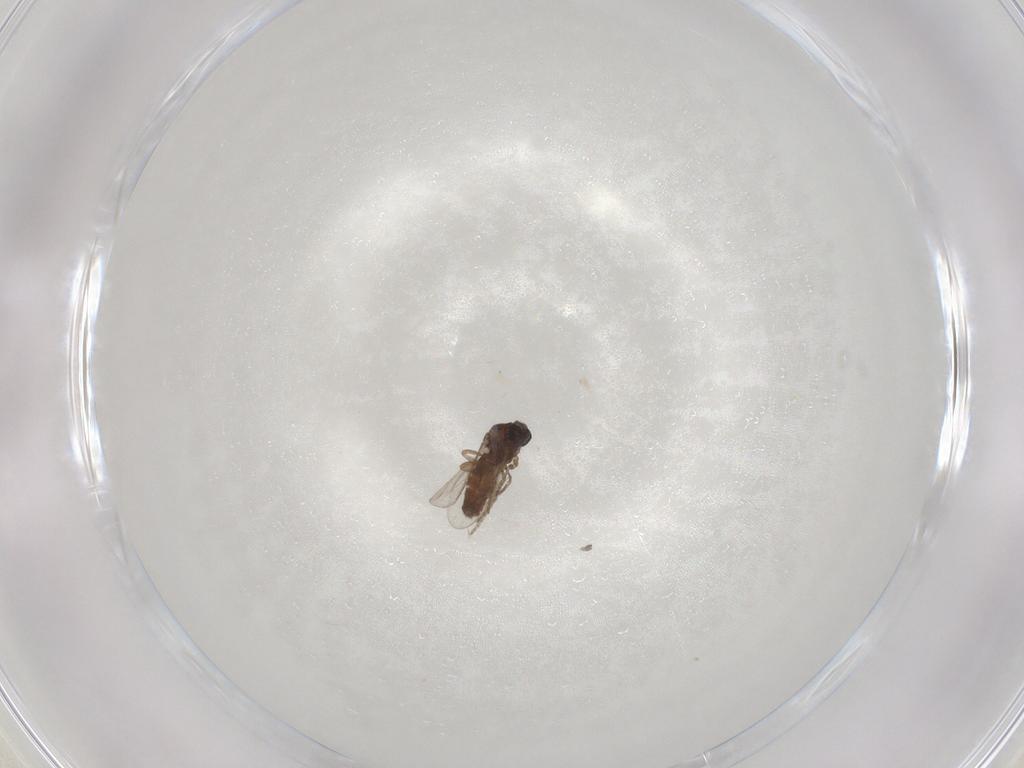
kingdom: Animalia
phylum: Arthropoda
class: Insecta
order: Diptera
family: Ceratopogonidae
